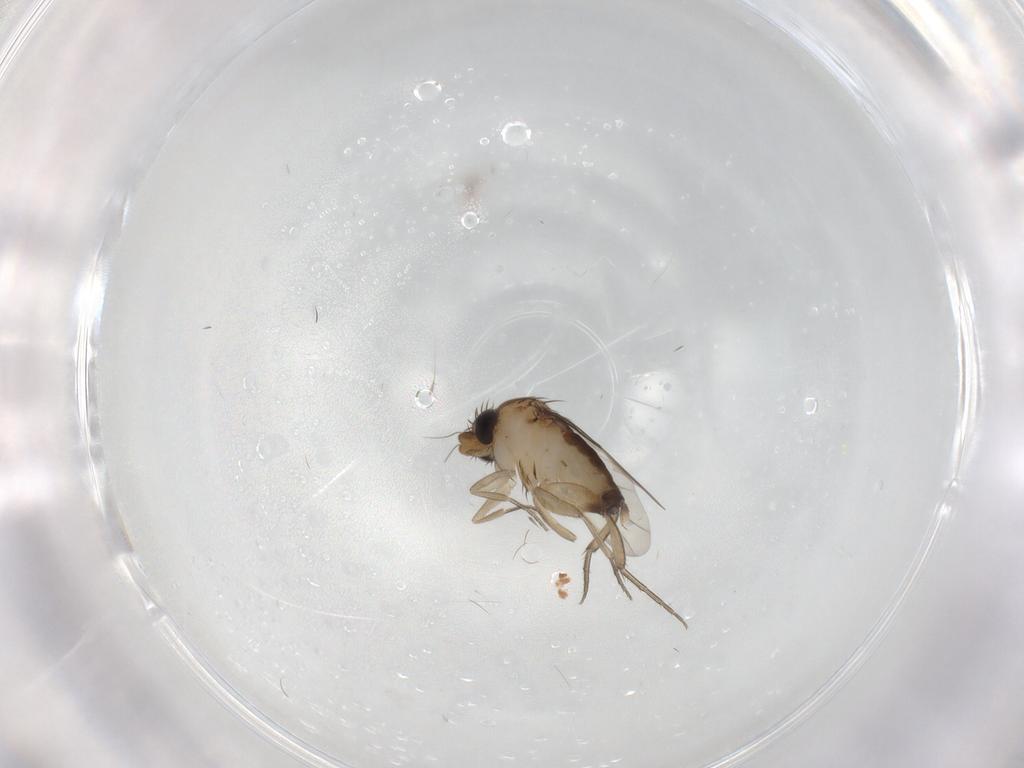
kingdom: Animalia
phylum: Arthropoda
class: Insecta
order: Diptera
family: Phoridae
